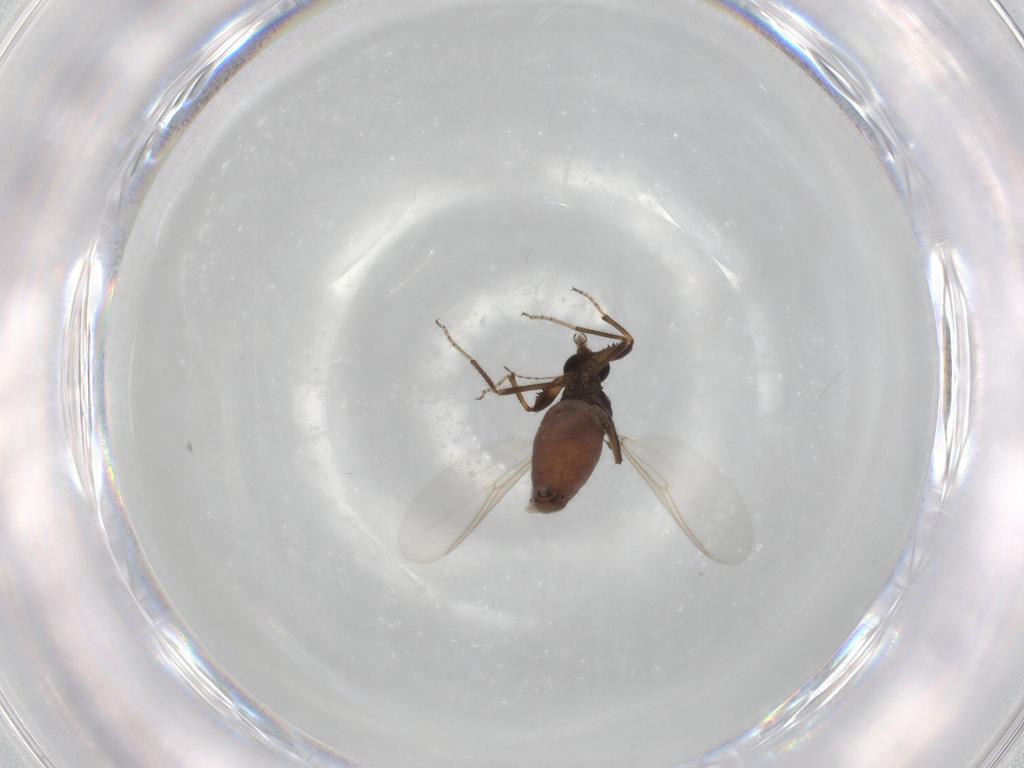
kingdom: Animalia
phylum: Arthropoda
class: Insecta
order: Diptera
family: Ceratopogonidae
